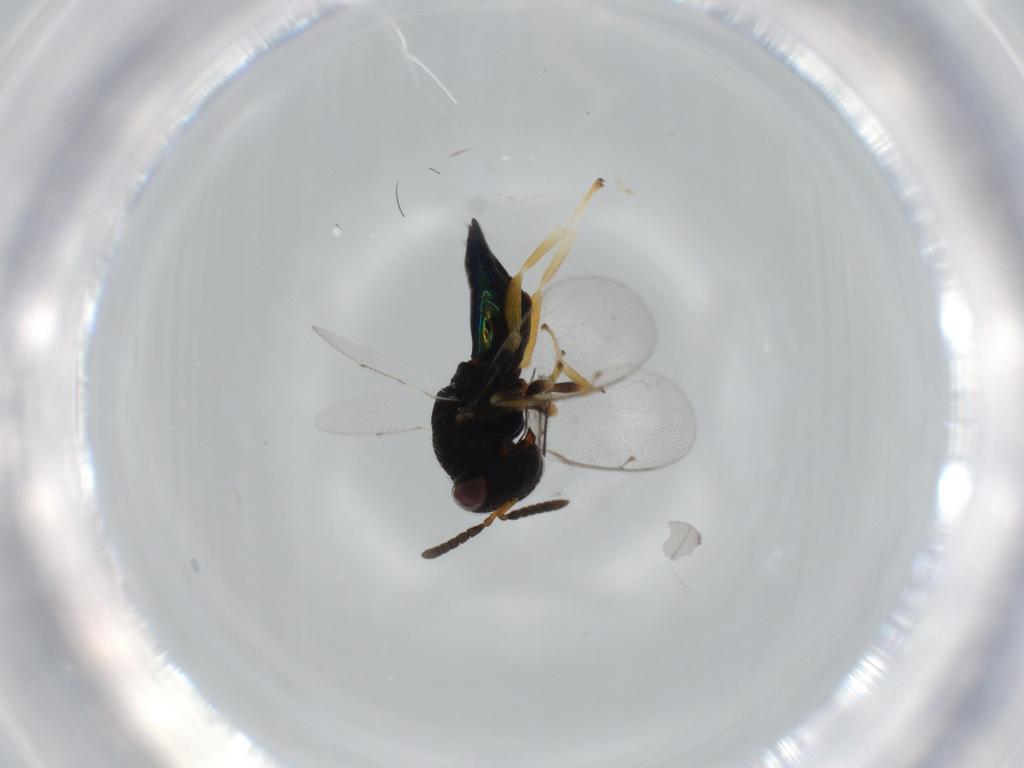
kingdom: Animalia
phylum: Arthropoda
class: Insecta
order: Hymenoptera
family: Pteromalidae
